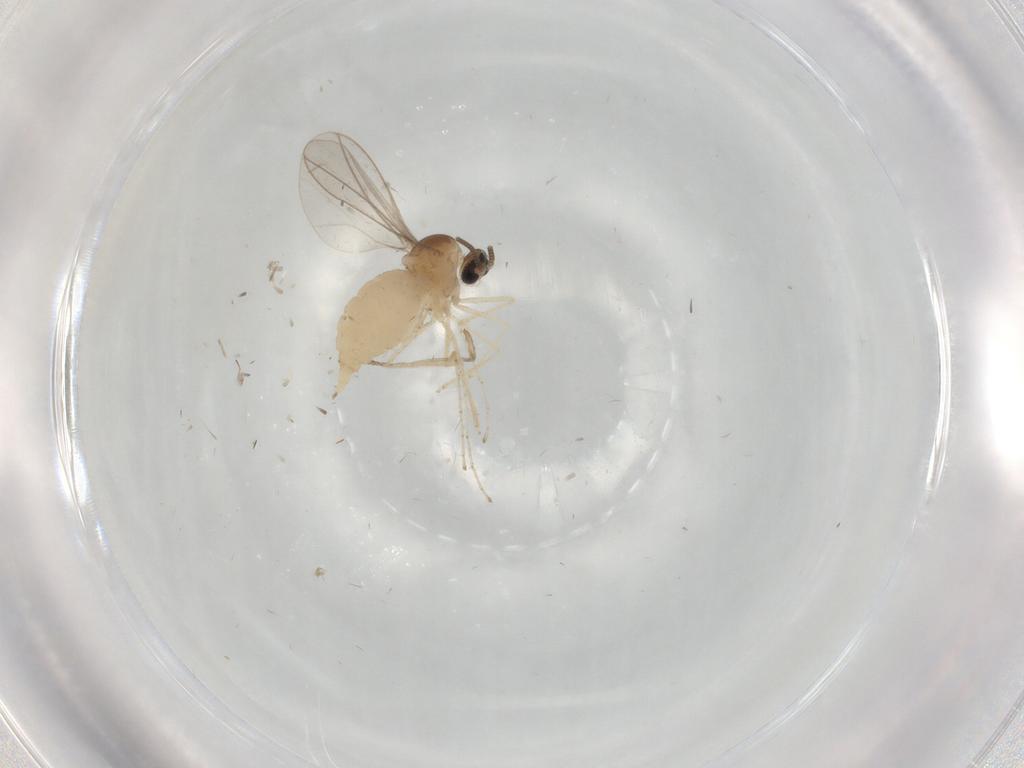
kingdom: Animalia
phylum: Arthropoda
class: Insecta
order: Diptera
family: Cecidomyiidae
